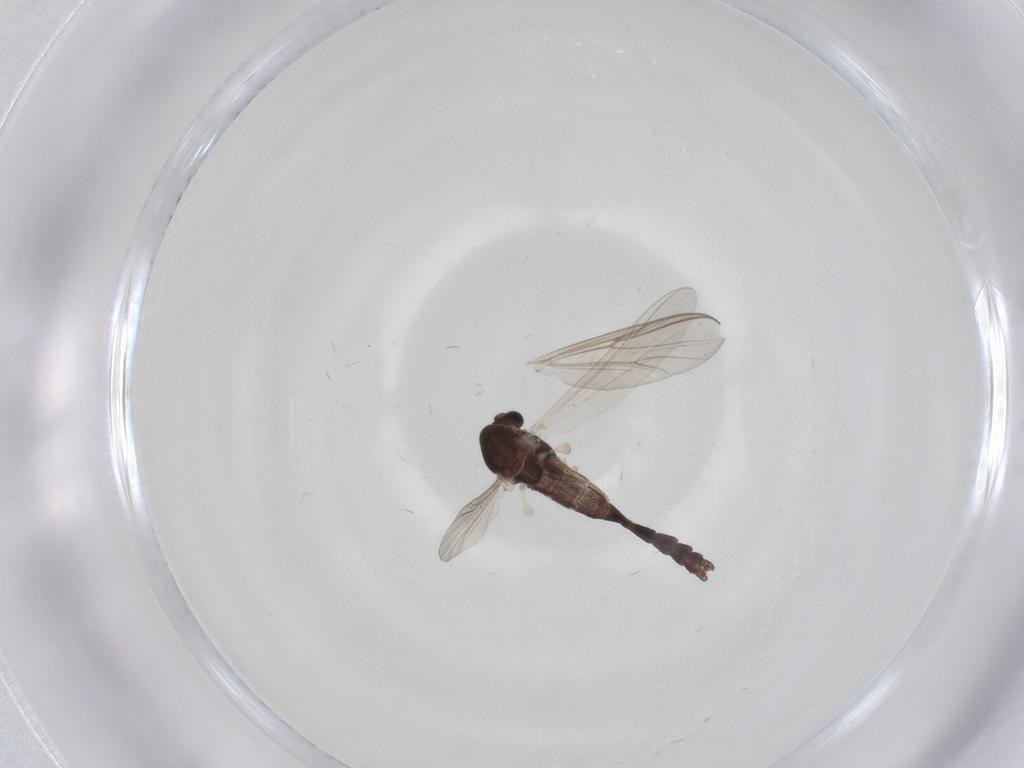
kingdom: Animalia
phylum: Arthropoda
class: Insecta
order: Diptera
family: Chironomidae
